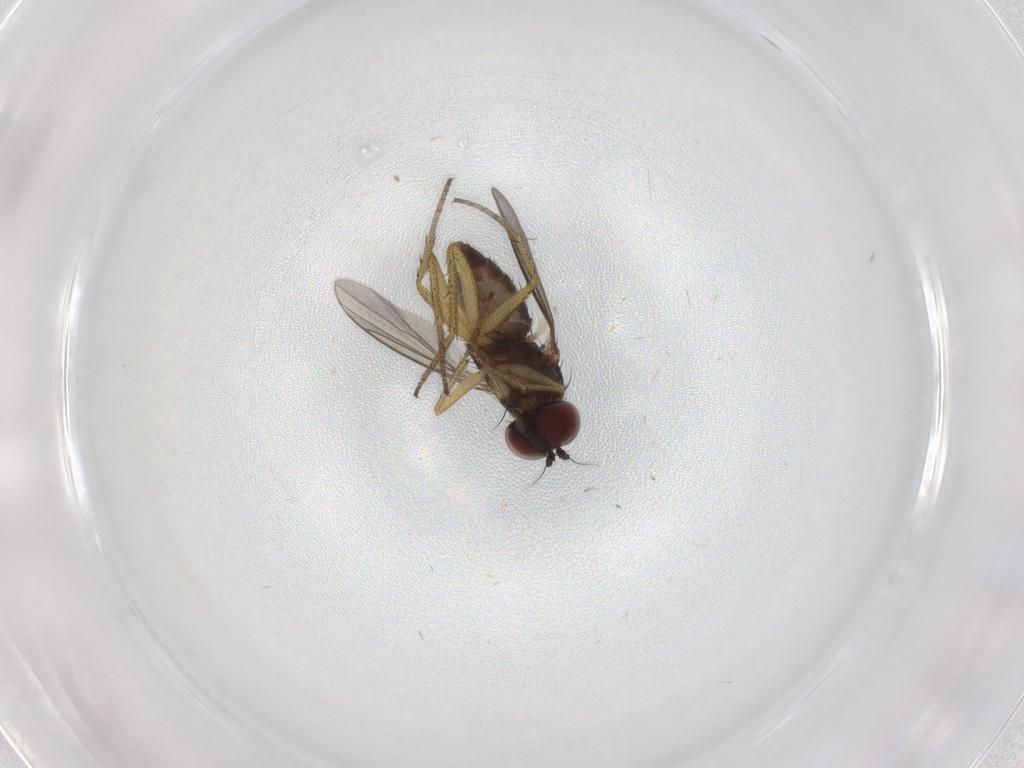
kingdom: Animalia
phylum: Arthropoda
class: Insecta
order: Diptera
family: Dolichopodidae
